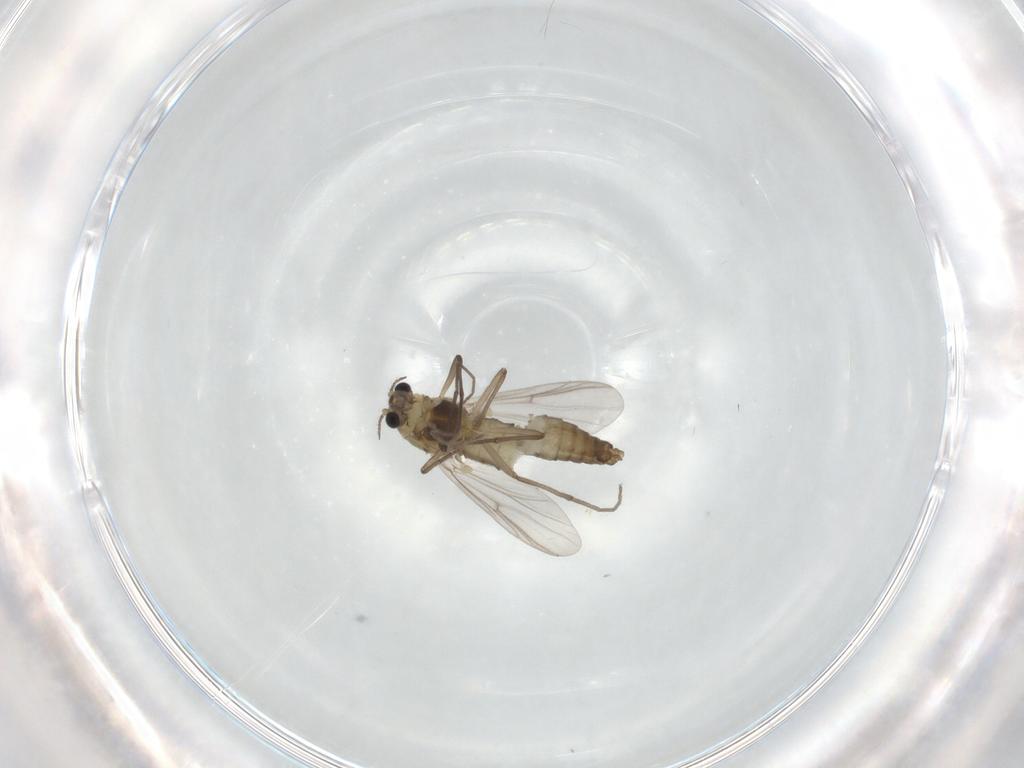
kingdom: Animalia
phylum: Arthropoda
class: Insecta
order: Diptera
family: Chironomidae
